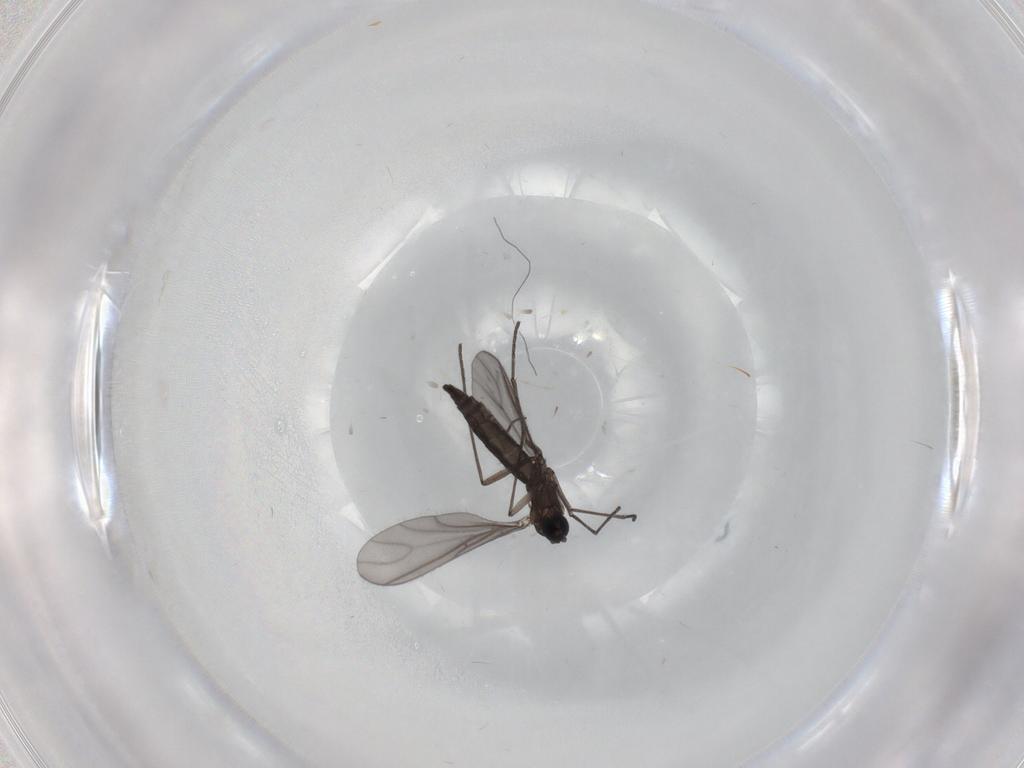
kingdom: Animalia
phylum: Arthropoda
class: Insecta
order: Diptera
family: Sciaridae
